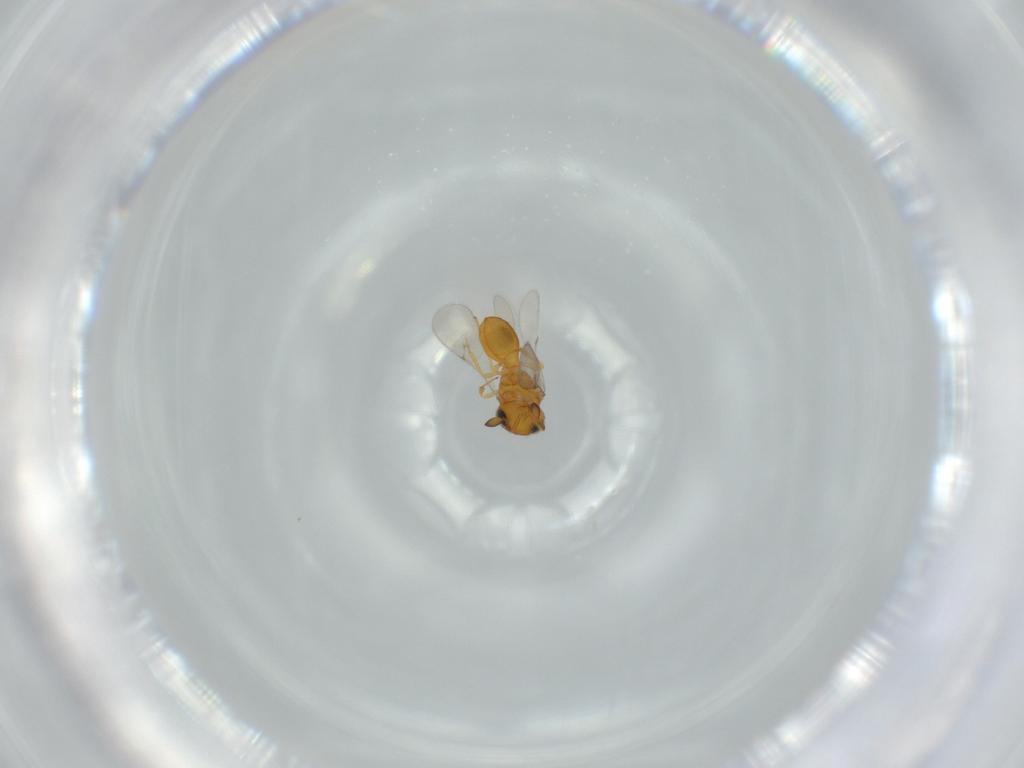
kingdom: Animalia
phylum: Arthropoda
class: Insecta
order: Hymenoptera
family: Scelionidae
